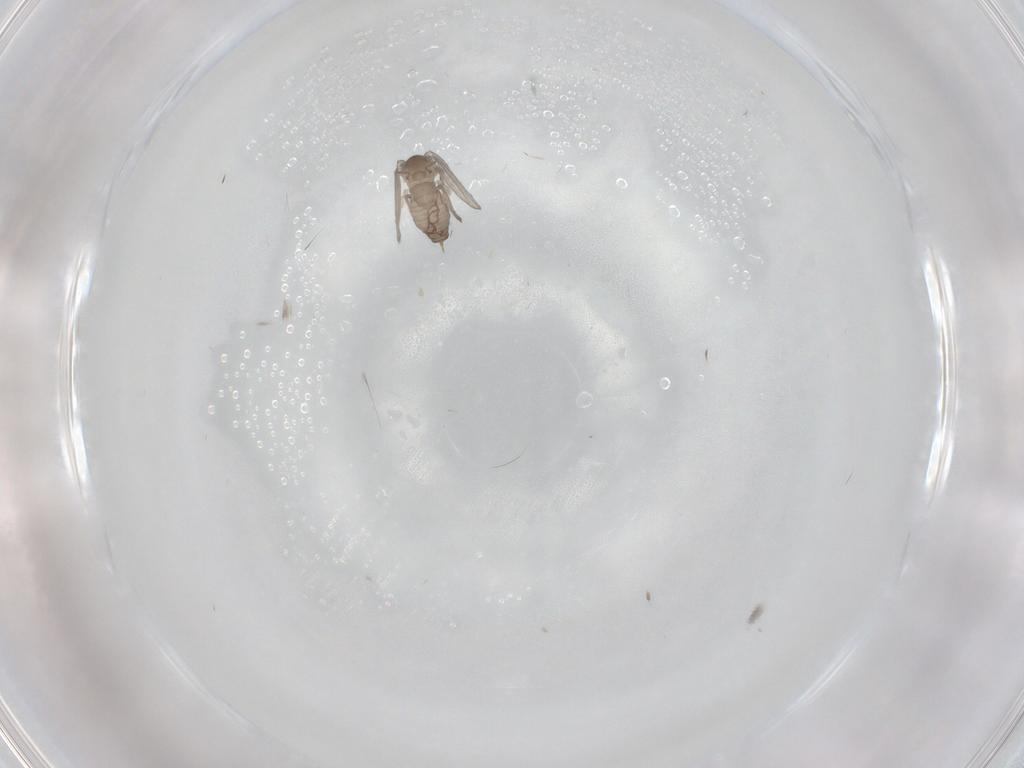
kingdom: Animalia
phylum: Arthropoda
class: Insecta
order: Diptera
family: Psychodidae
